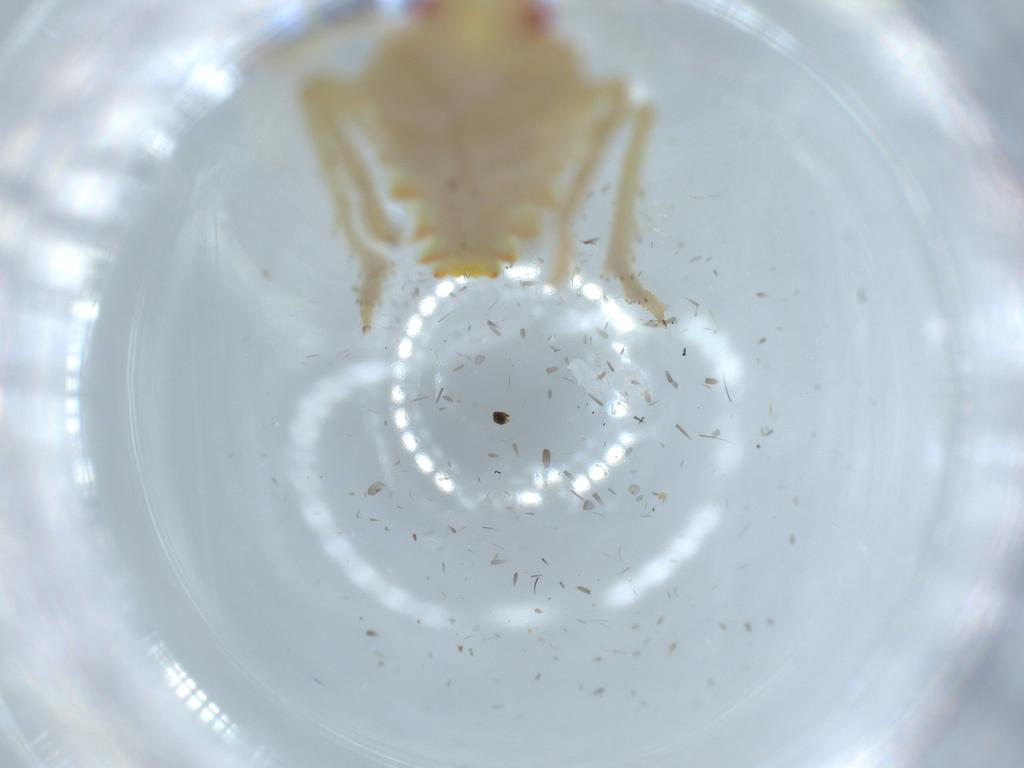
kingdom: Animalia
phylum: Arthropoda
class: Insecta
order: Hemiptera
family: Tropiduchidae
